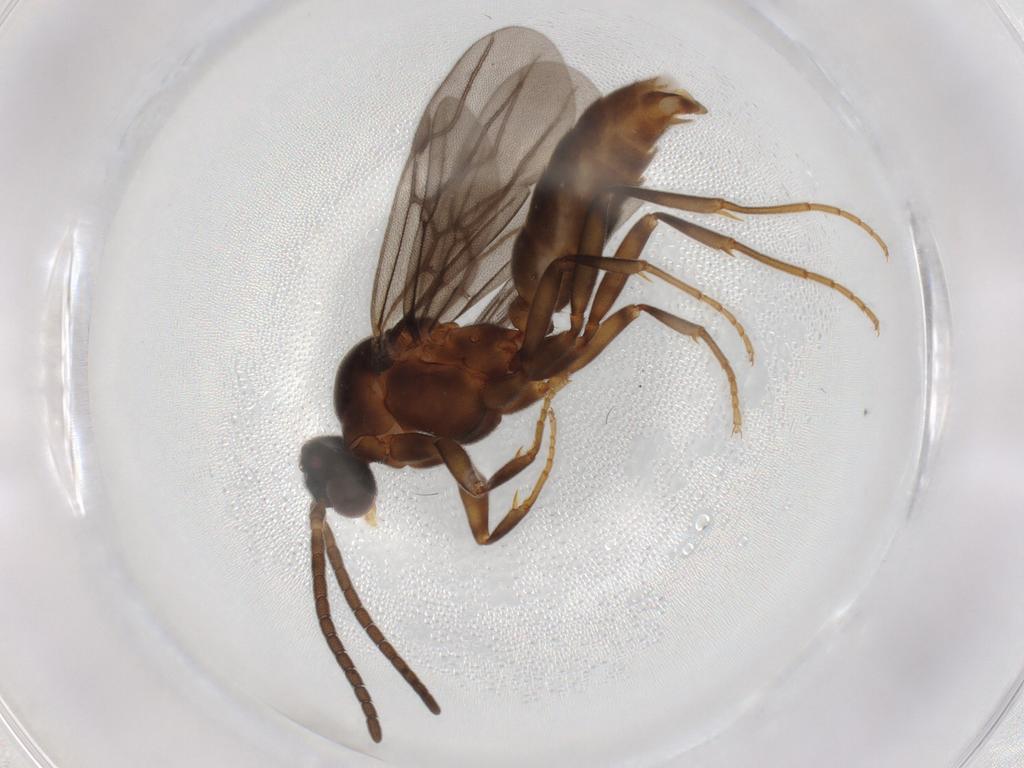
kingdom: Animalia
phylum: Arthropoda
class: Insecta
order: Hymenoptera
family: Formicidae
